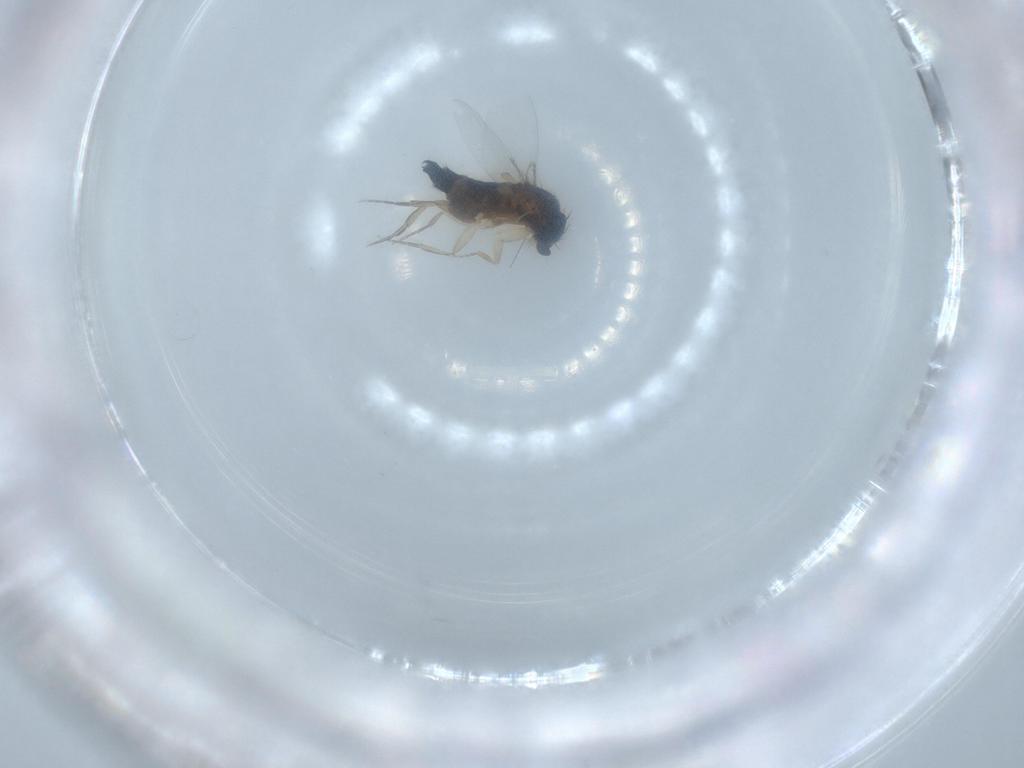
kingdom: Animalia
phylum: Arthropoda
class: Insecta
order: Diptera
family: Phoridae
